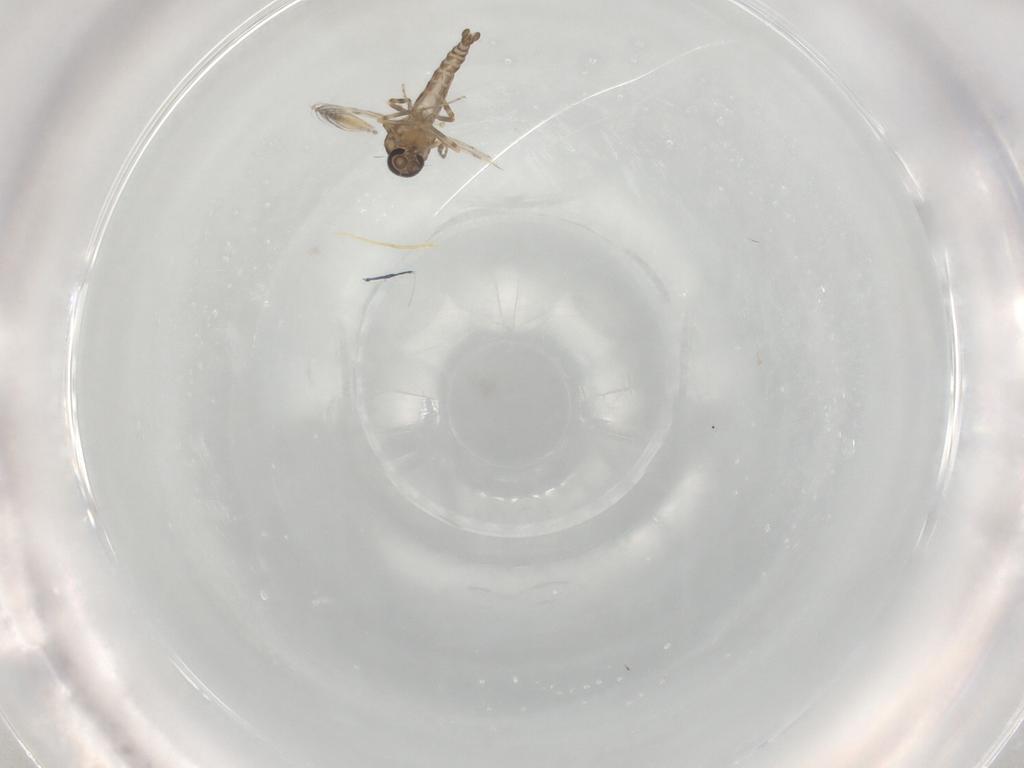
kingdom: Animalia
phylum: Arthropoda
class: Insecta
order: Diptera
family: Ceratopogonidae
